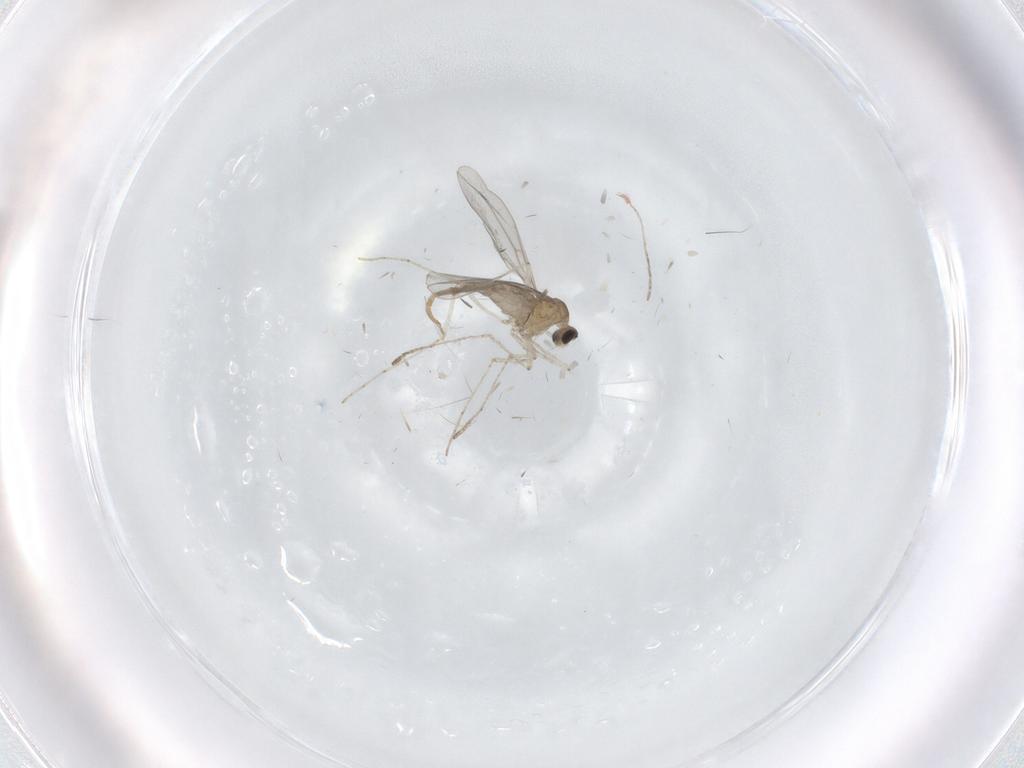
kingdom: Animalia
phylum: Arthropoda
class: Insecta
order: Diptera
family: Cecidomyiidae
